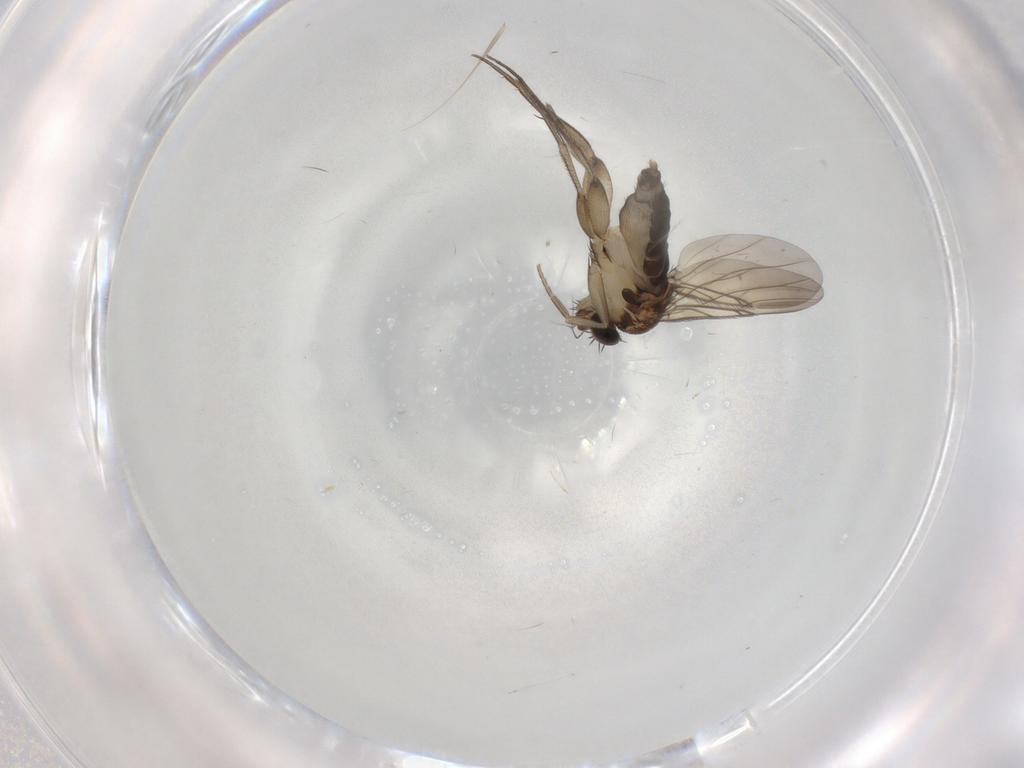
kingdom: Animalia
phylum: Arthropoda
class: Insecta
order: Diptera
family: Phoridae
